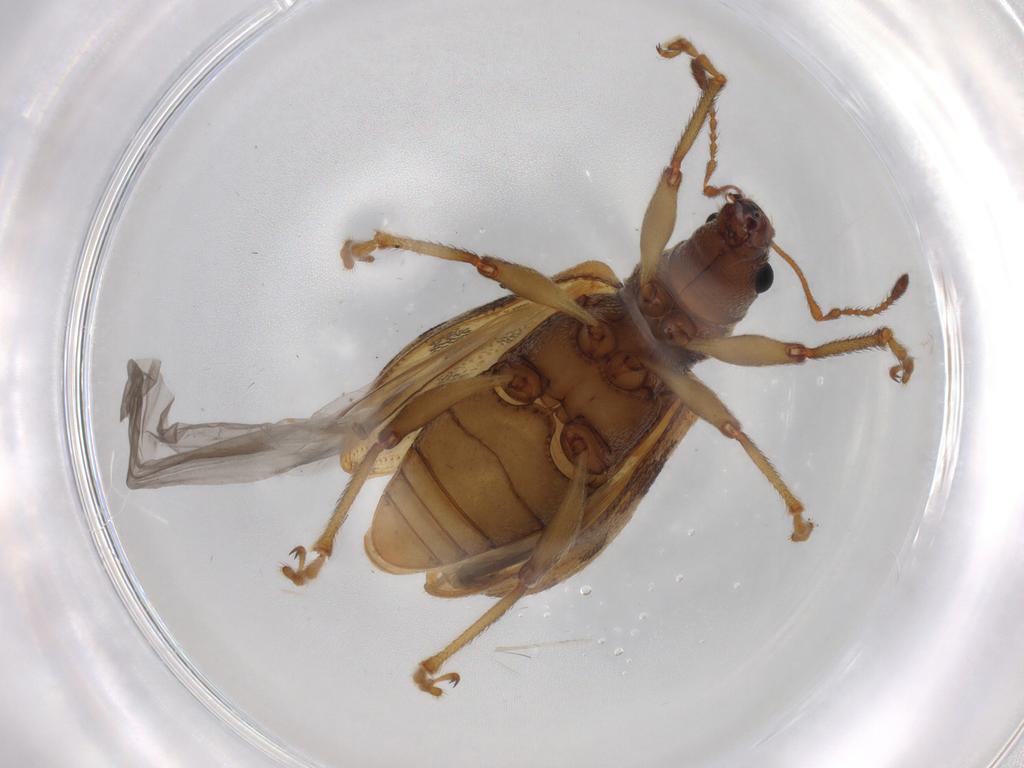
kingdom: Animalia
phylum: Arthropoda
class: Insecta
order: Coleoptera
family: Curculionidae
